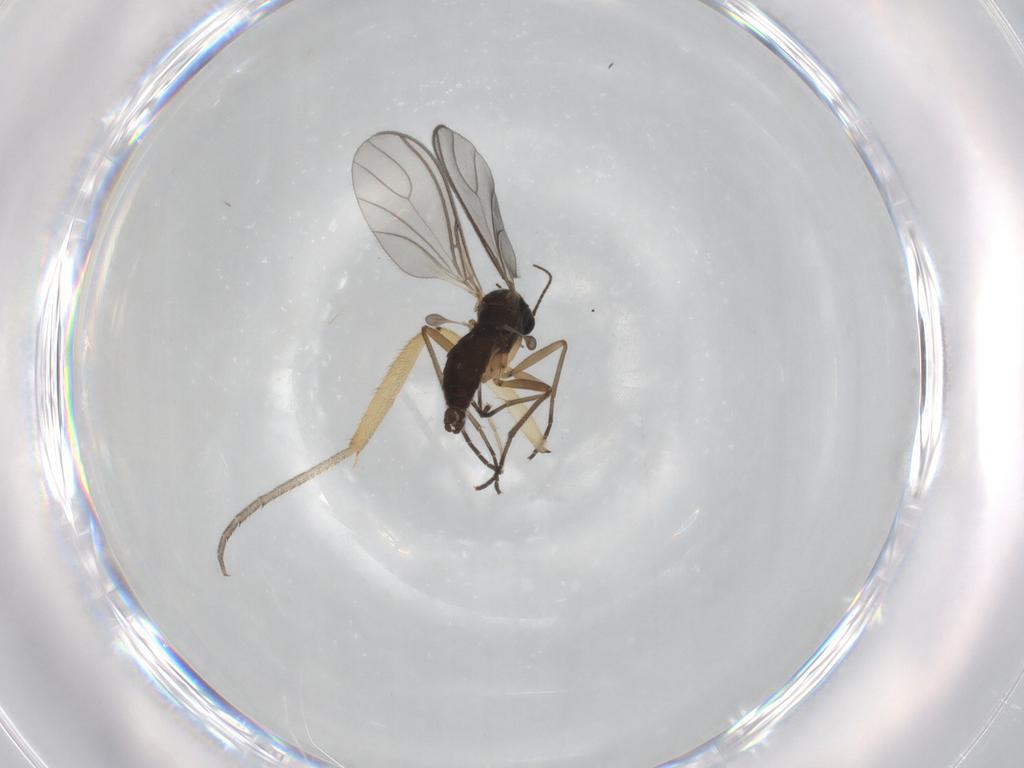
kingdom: Animalia
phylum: Arthropoda
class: Insecta
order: Diptera
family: Sciaridae
